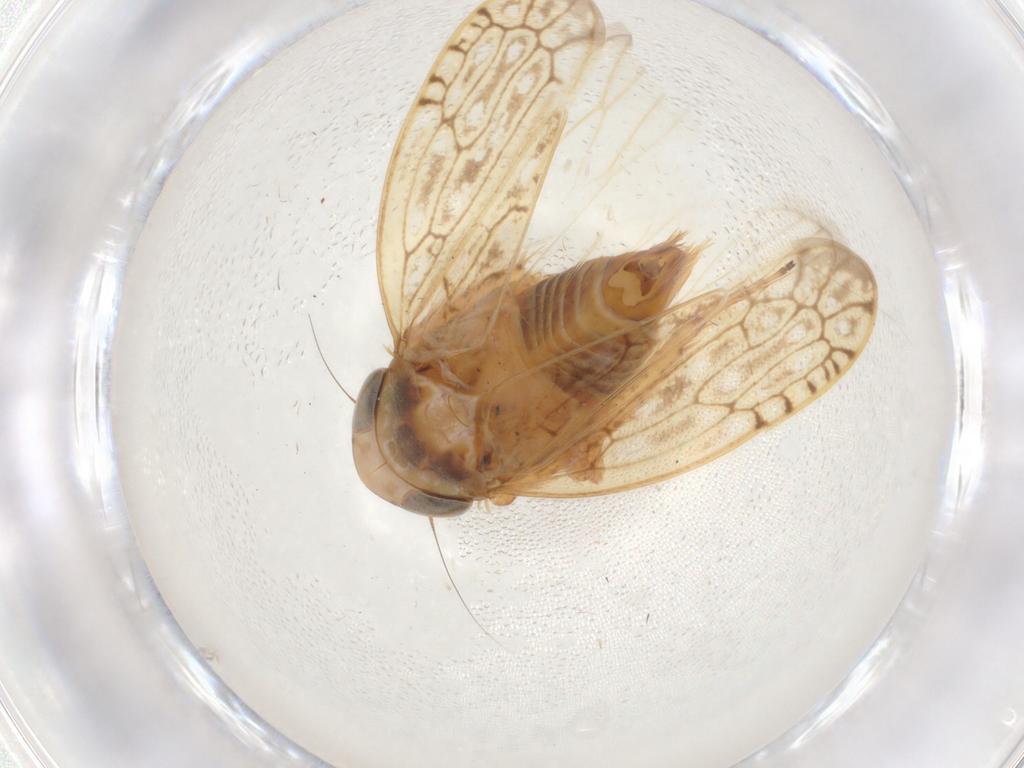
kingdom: Animalia
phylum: Arthropoda
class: Insecta
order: Hemiptera
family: Cicadellidae
